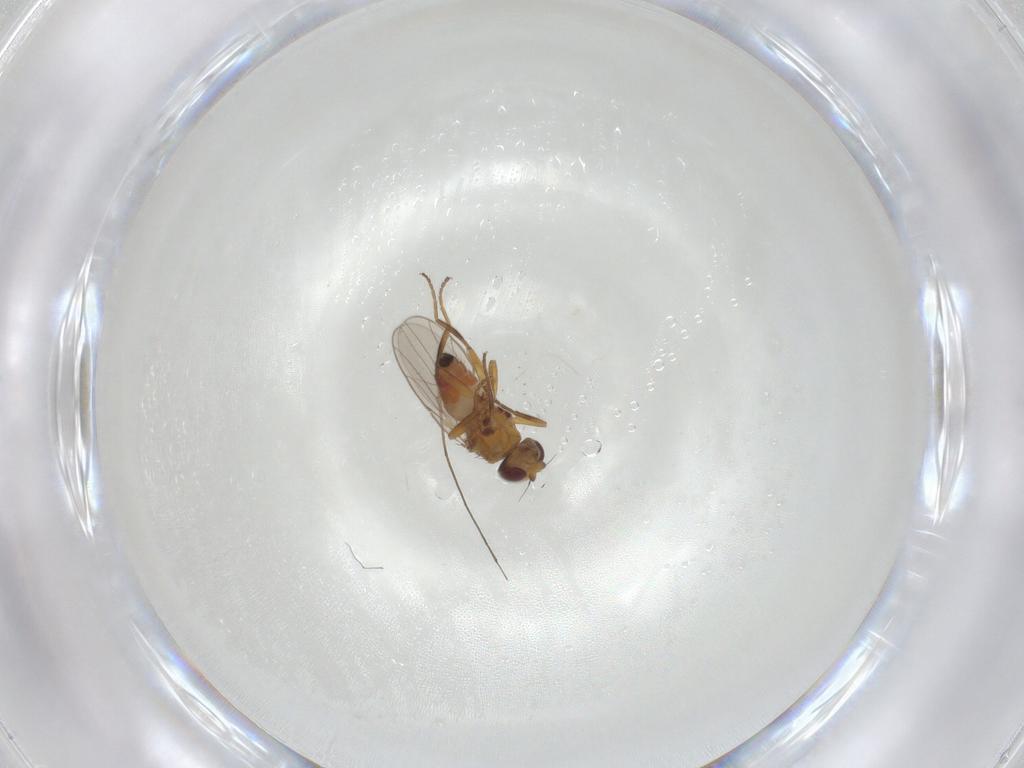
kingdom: Animalia
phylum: Arthropoda
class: Insecta
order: Diptera
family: Chloropidae
